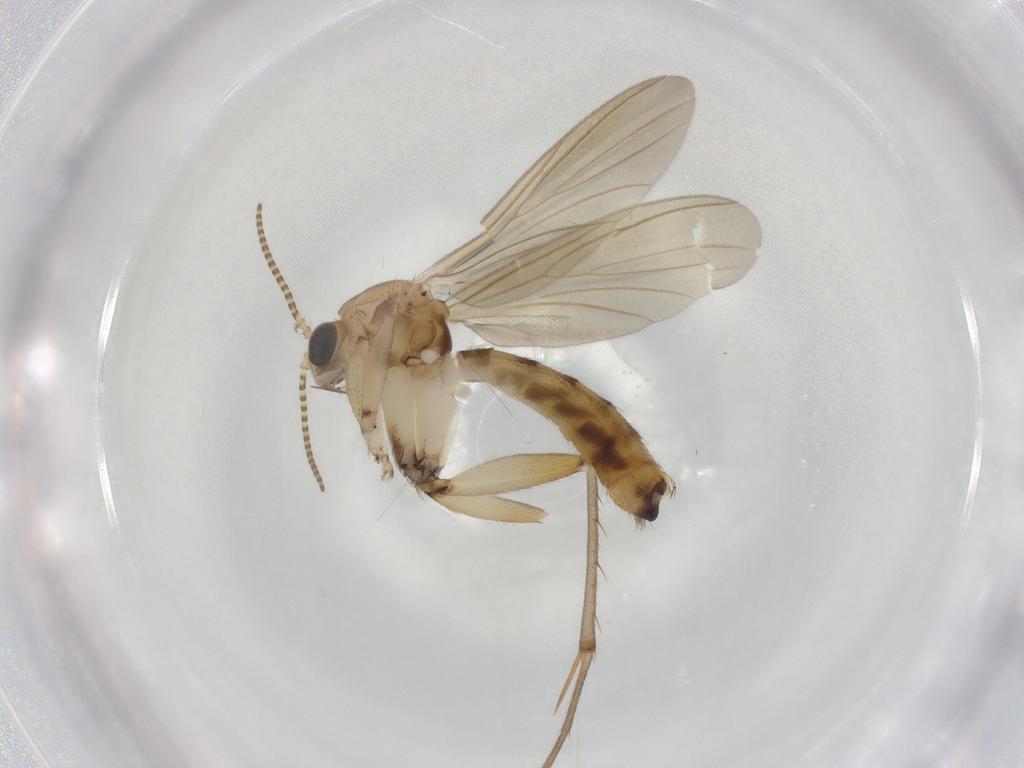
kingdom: Animalia
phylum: Arthropoda
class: Insecta
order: Diptera
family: Mycetophilidae
